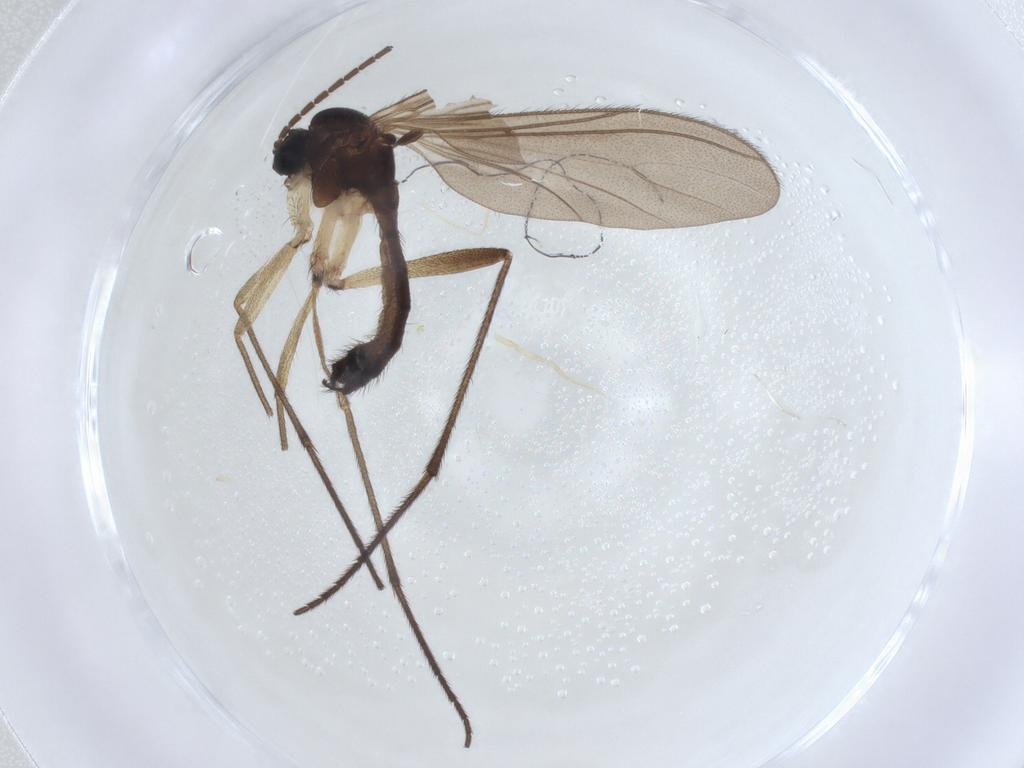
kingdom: Animalia
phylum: Arthropoda
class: Insecta
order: Diptera
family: Sciaridae
